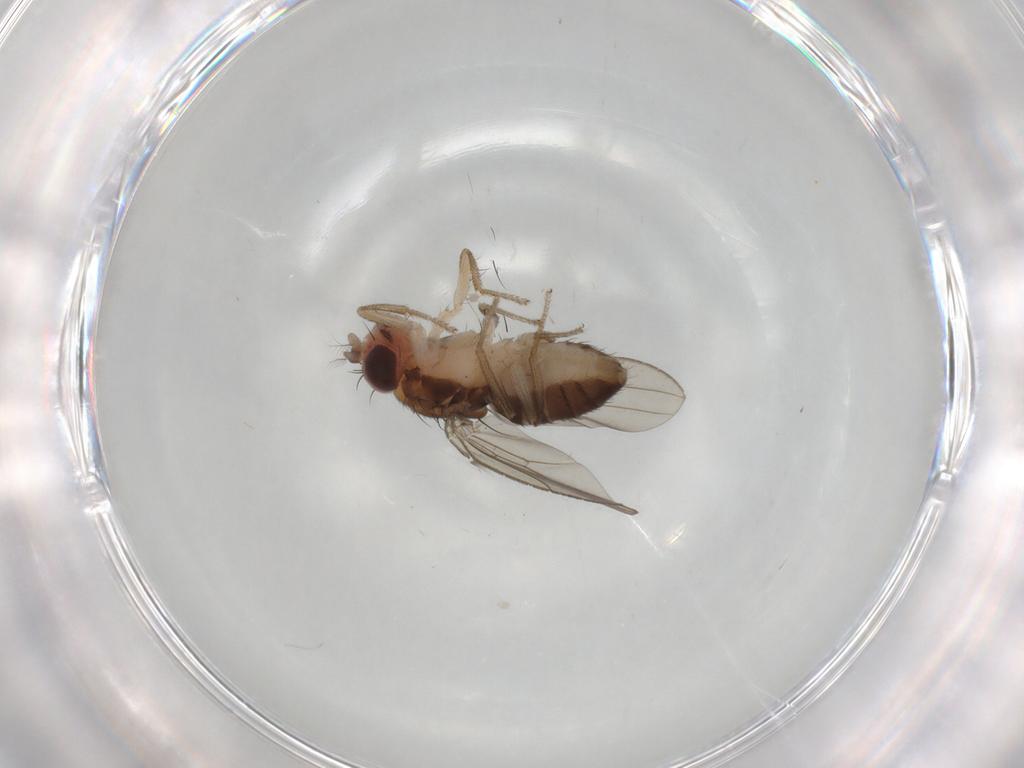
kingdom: Animalia
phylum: Arthropoda
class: Insecta
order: Diptera
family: Drosophilidae
